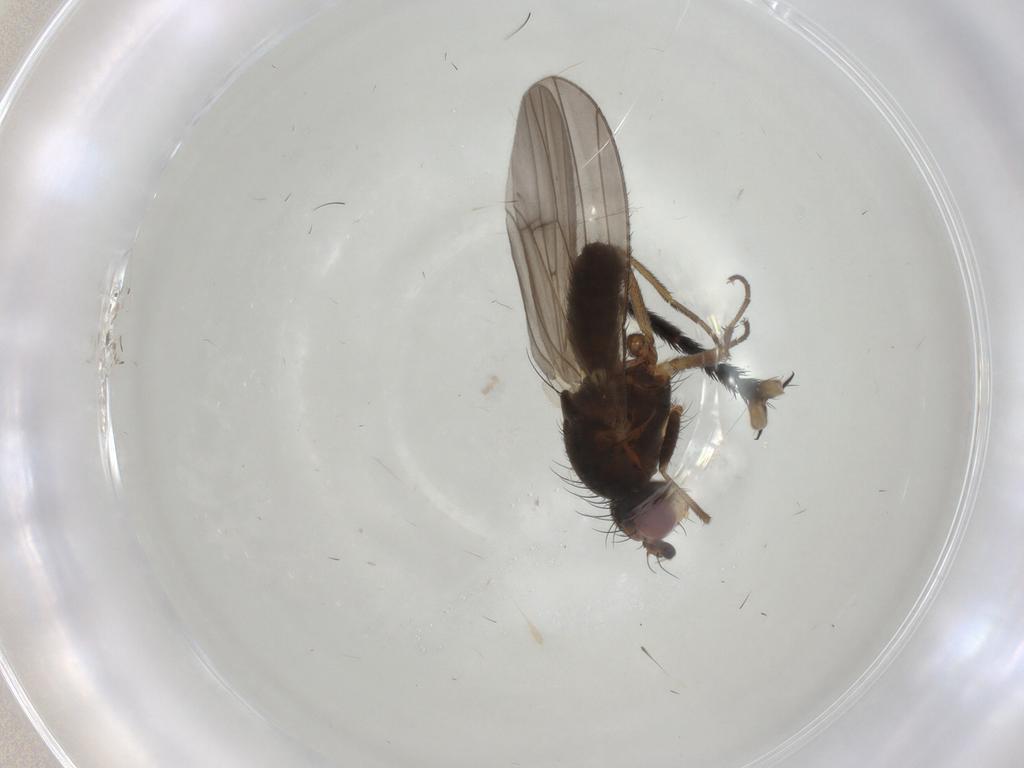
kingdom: Animalia
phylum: Arthropoda
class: Insecta
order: Diptera
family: Heleomyzidae
